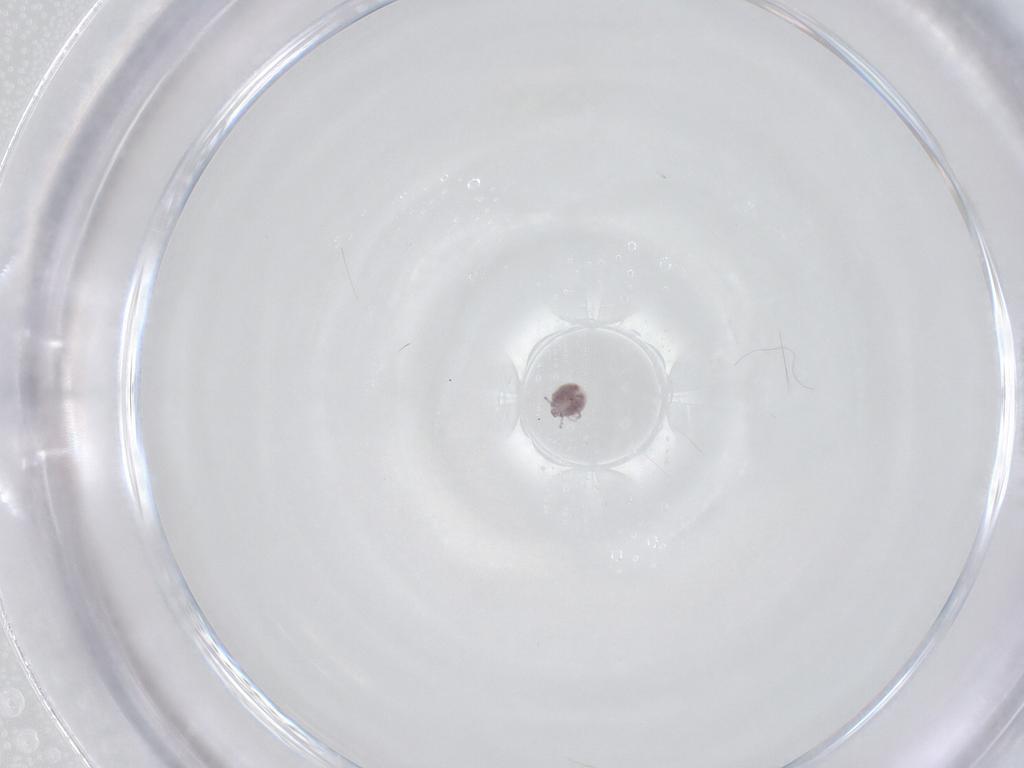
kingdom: Animalia
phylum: Arthropoda
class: Arachnida
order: Trombidiformes
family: Pionidae
